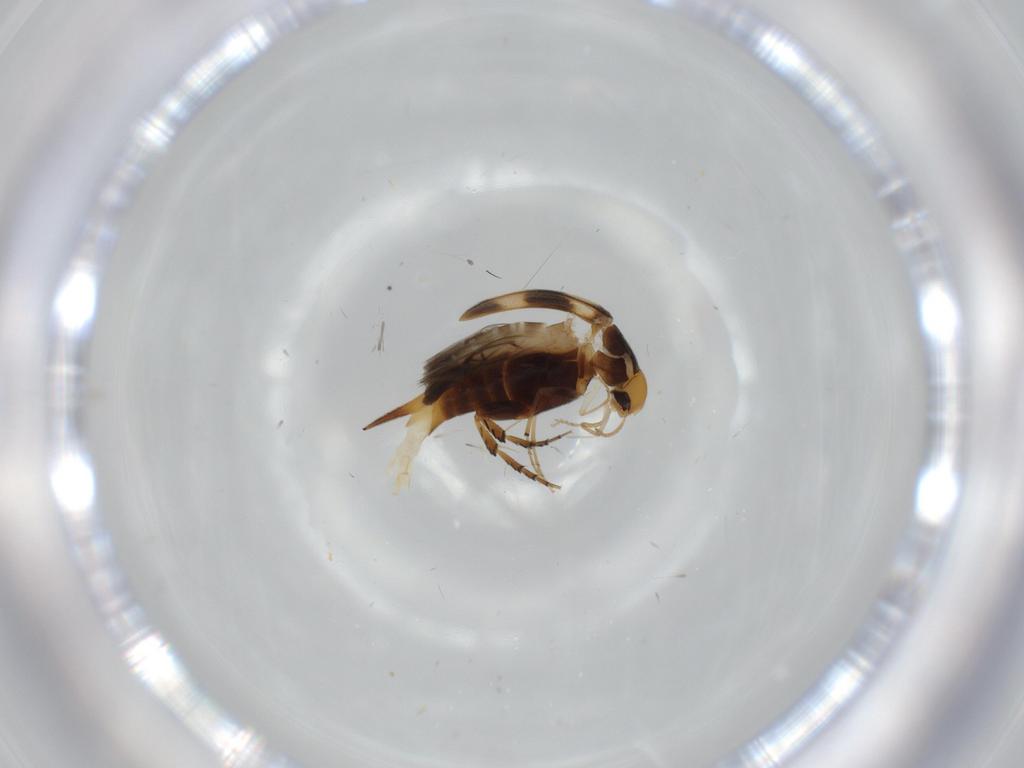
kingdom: Animalia
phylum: Arthropoda
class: Insecta
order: Coleoptera
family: Mordellidae
